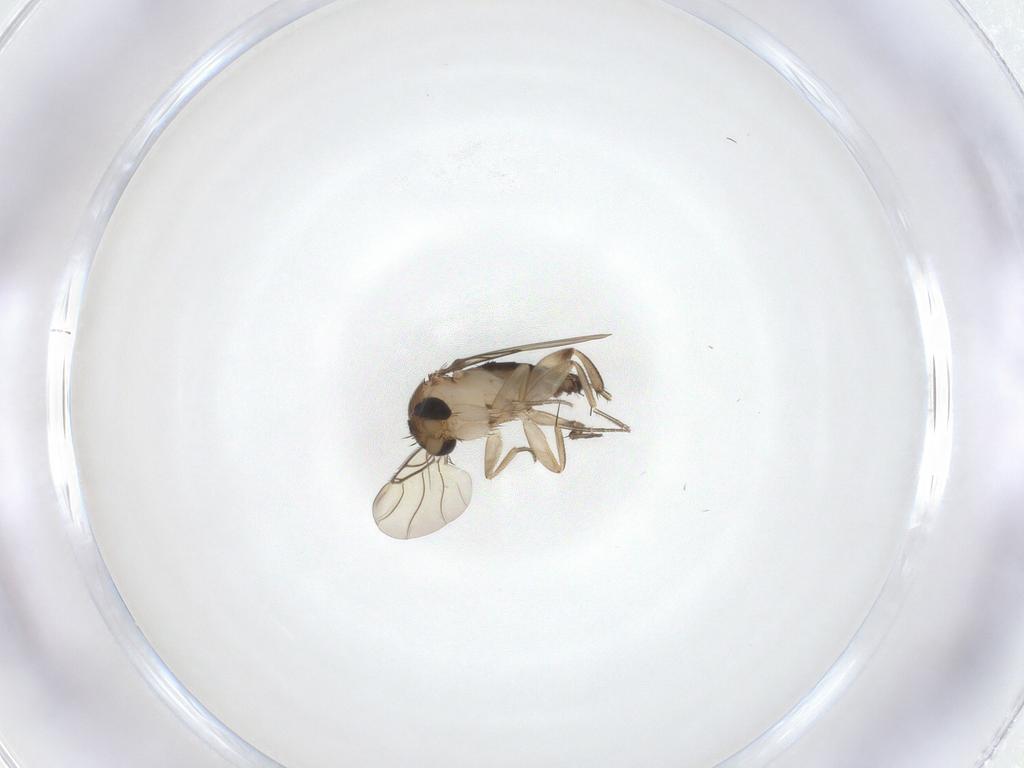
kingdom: Animalia
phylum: Arthropoda
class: Insecta
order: Diptera
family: Phoridae
